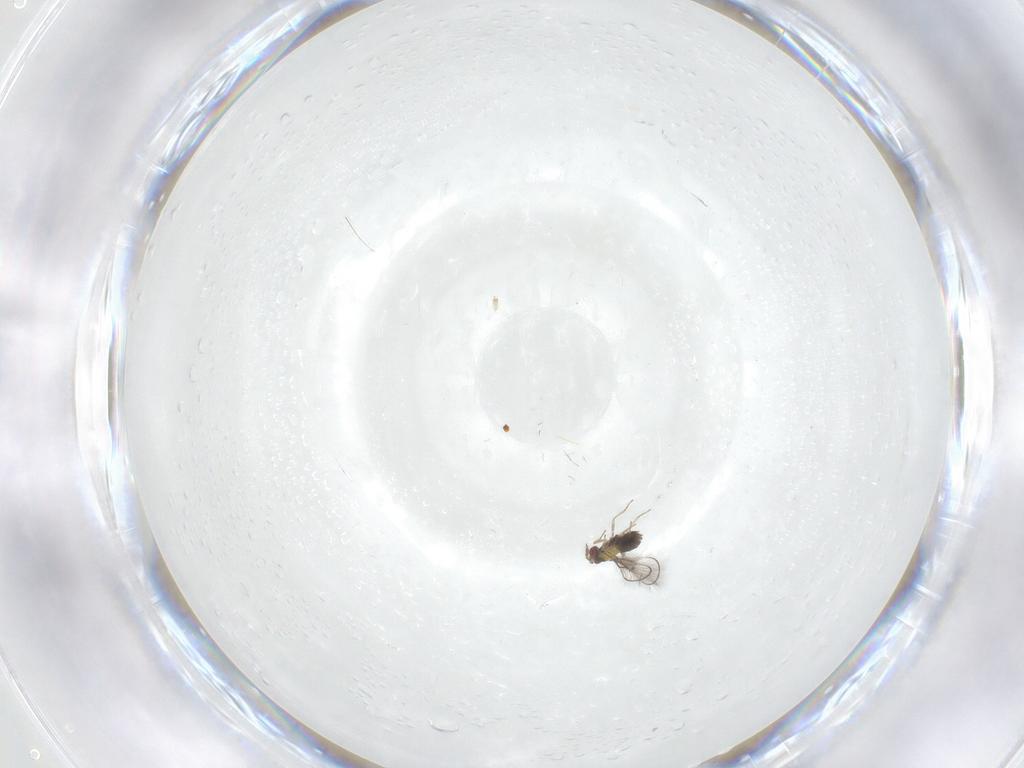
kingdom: Animalia
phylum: Arthropoda
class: Insecta
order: Hymenoptera
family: Trichogrammatidae
